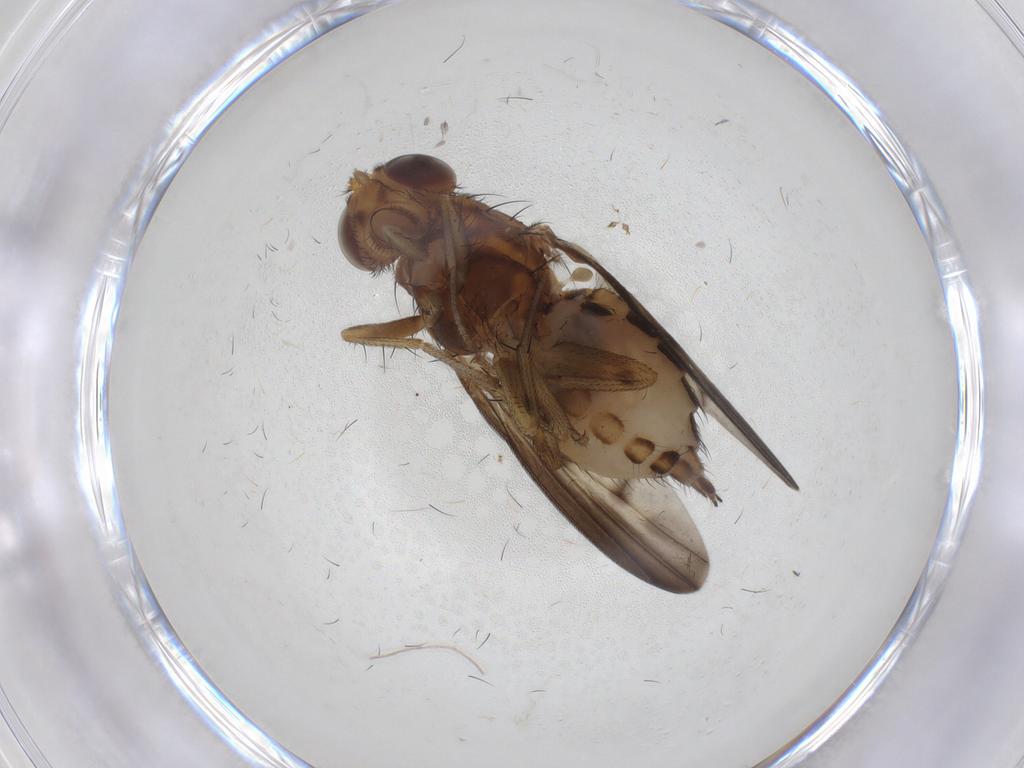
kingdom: Animalia
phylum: Arthropoda
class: Insecta
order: Diptera
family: Lauxaniidae
